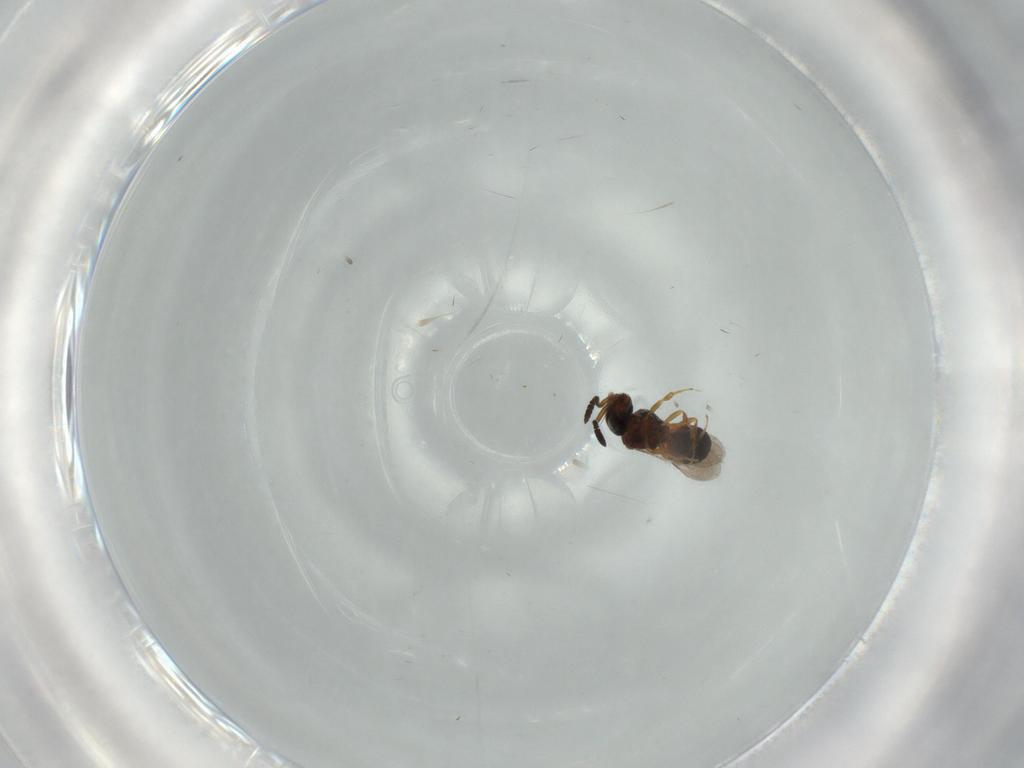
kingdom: Animalia
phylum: Arthropoda
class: Insecta
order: Hymenoptera
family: Scelionidae
